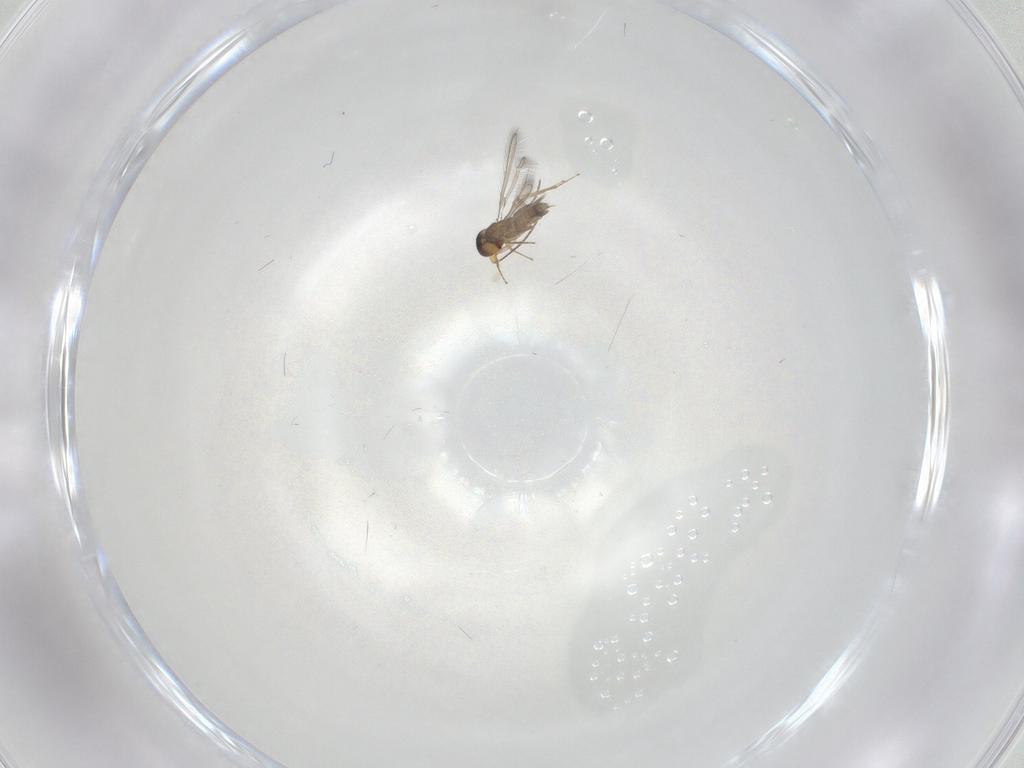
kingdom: Animalia
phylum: Arthropoda
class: Insecta
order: Hymenoptera
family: Mymaridae
